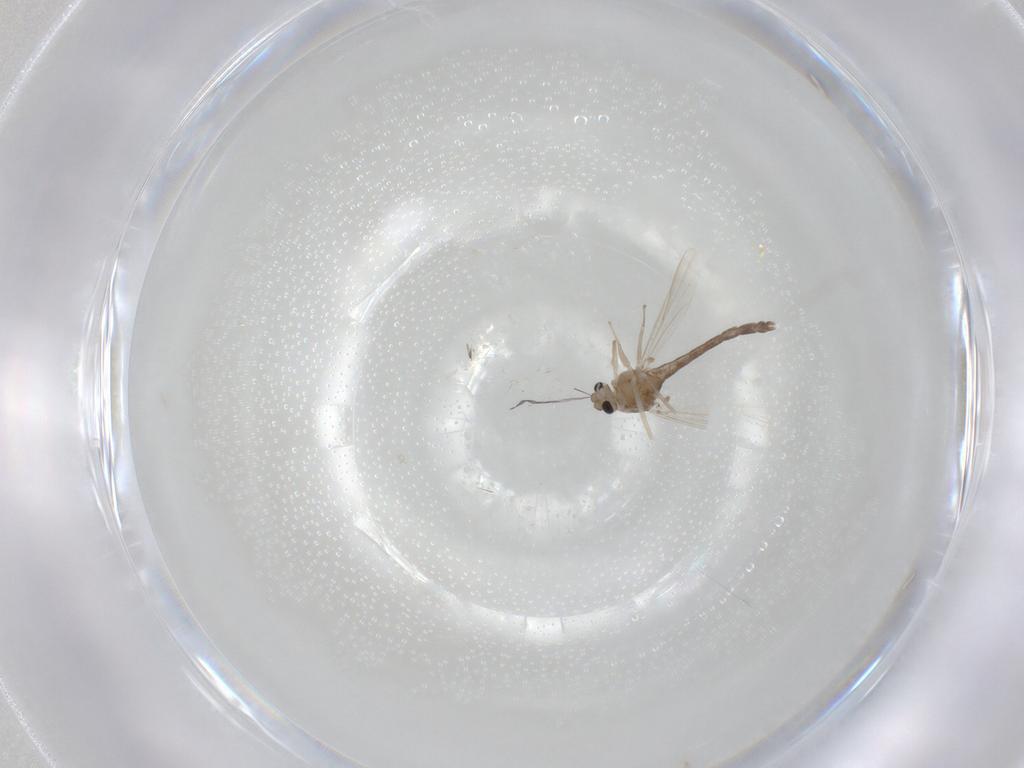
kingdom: Animalia
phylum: Arthropoda
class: Insecta
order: Diptera
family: Chironomidae
